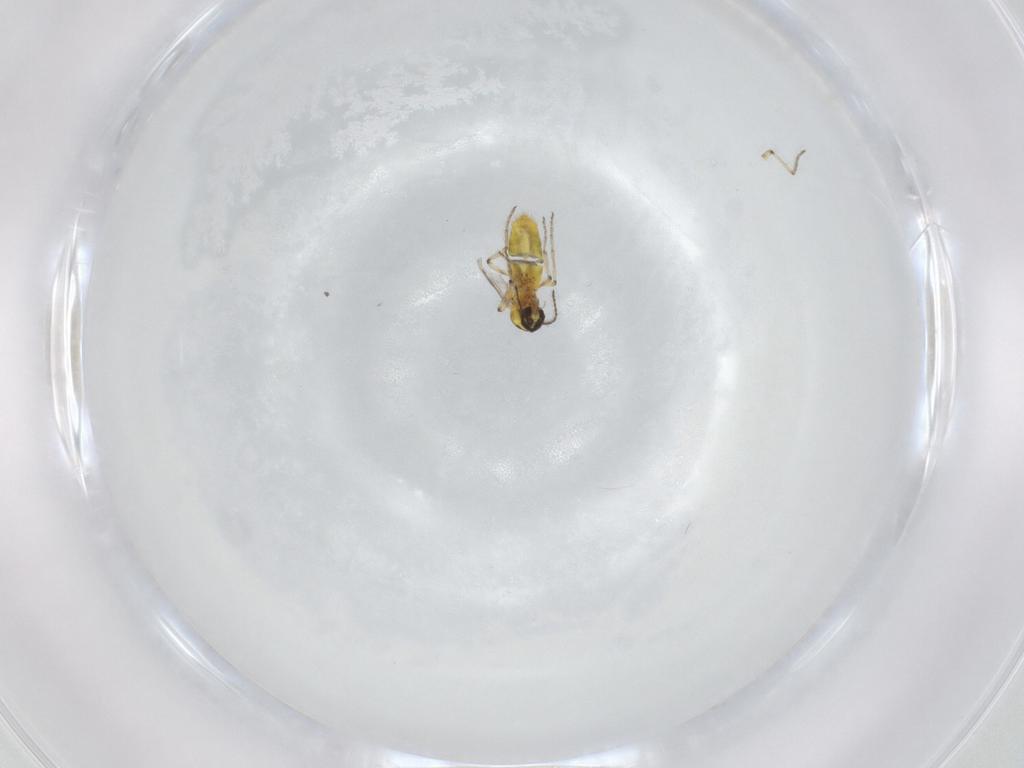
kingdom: Animalia
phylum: Arthropoda
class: Insecta
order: Diptera
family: Ceratopogonidae
